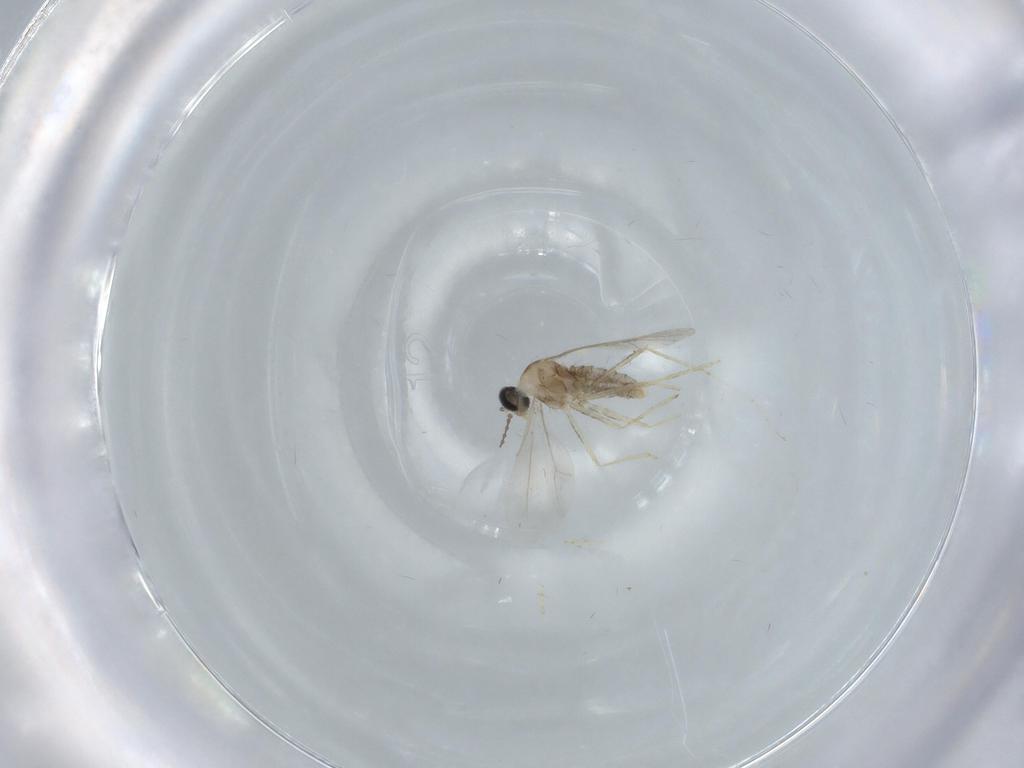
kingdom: Animalia
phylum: Arthropoda
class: Insecta
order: Diptera
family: Cecidomyiidae
